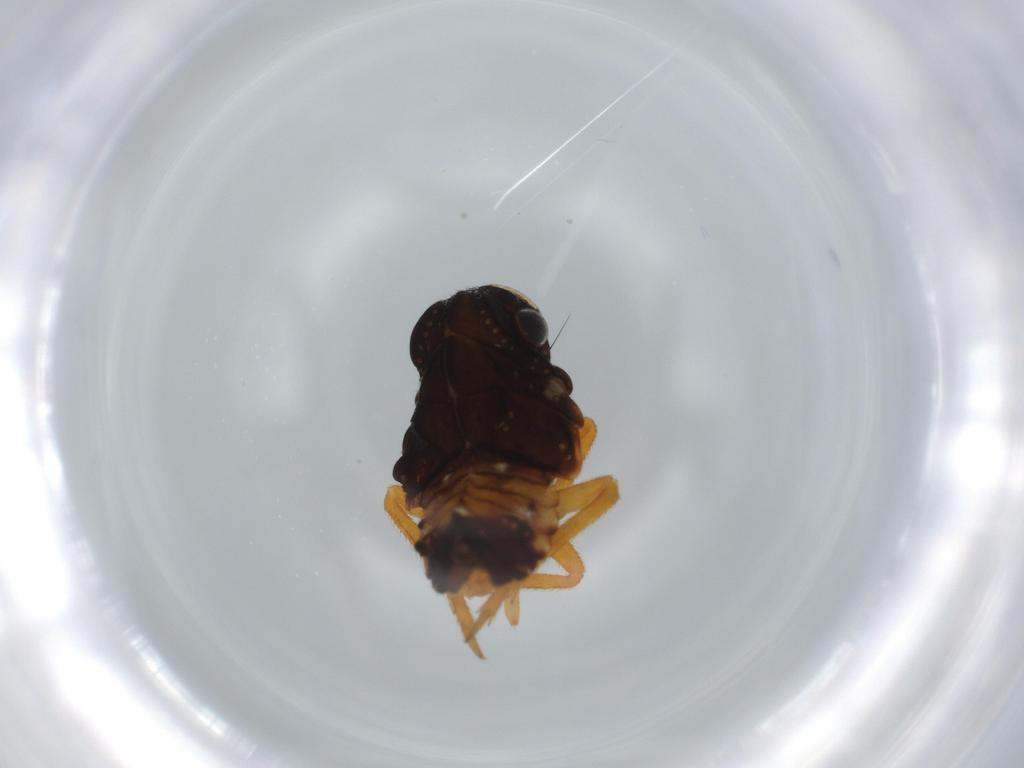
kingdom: Animalia
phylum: Arthropoda
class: Insecta
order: Hemiptera
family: Fulgoridae
